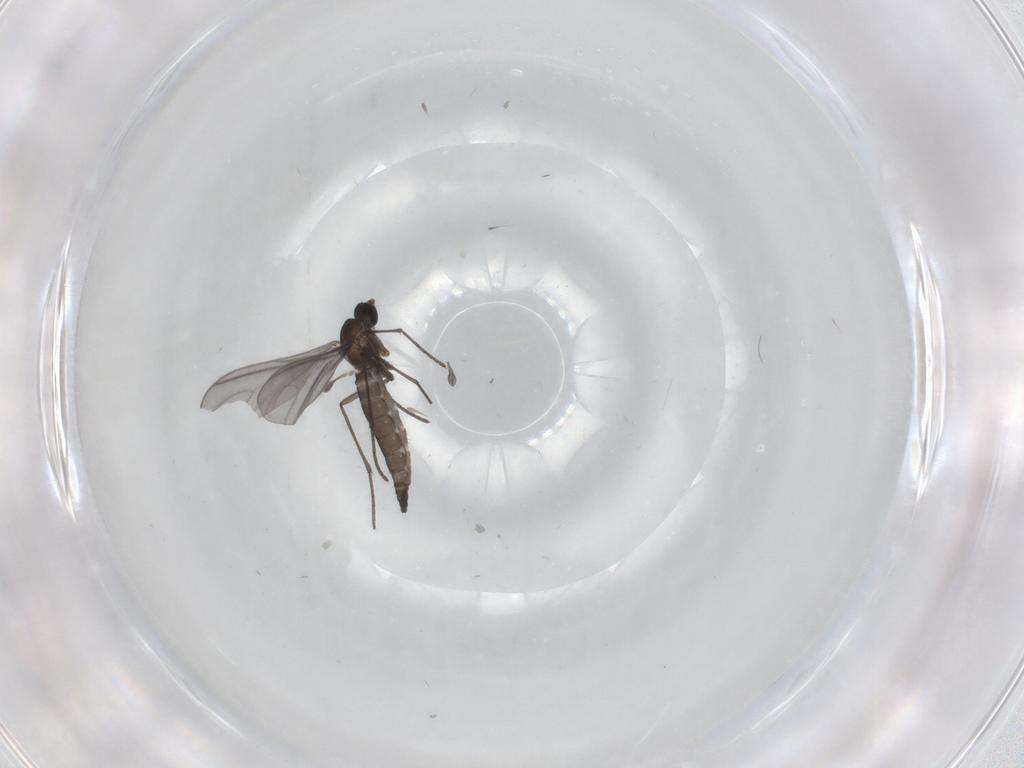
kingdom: Animalia
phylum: Arthropoda
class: Insecta
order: Diptera
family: Sciaridae
